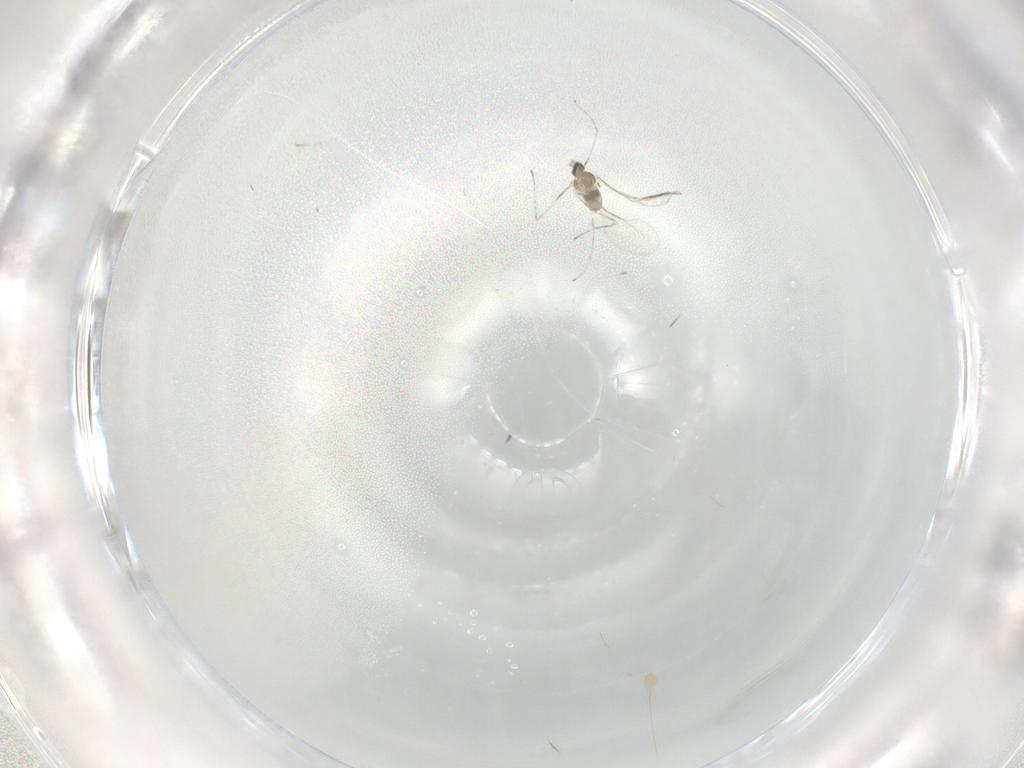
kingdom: Animalia
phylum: Arthropoda
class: Insecta
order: Diptera
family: Cecidomyiidae
